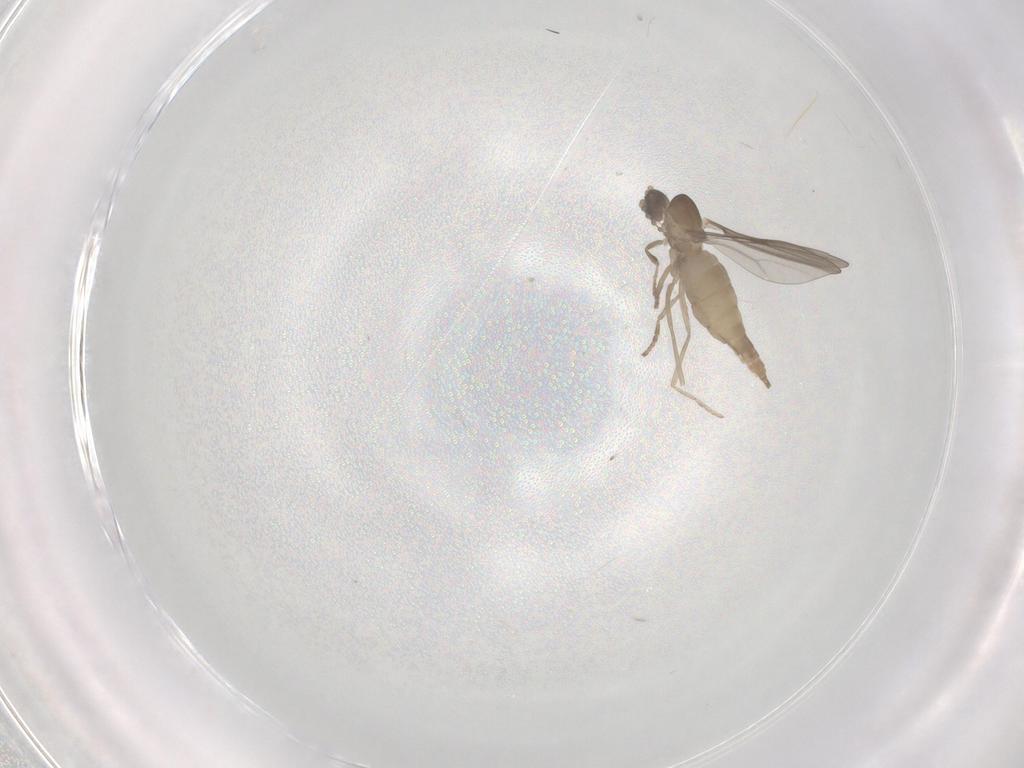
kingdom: Animalia
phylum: Arthropoda
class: Insecta
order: Diptera
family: Cecidomyiidae
